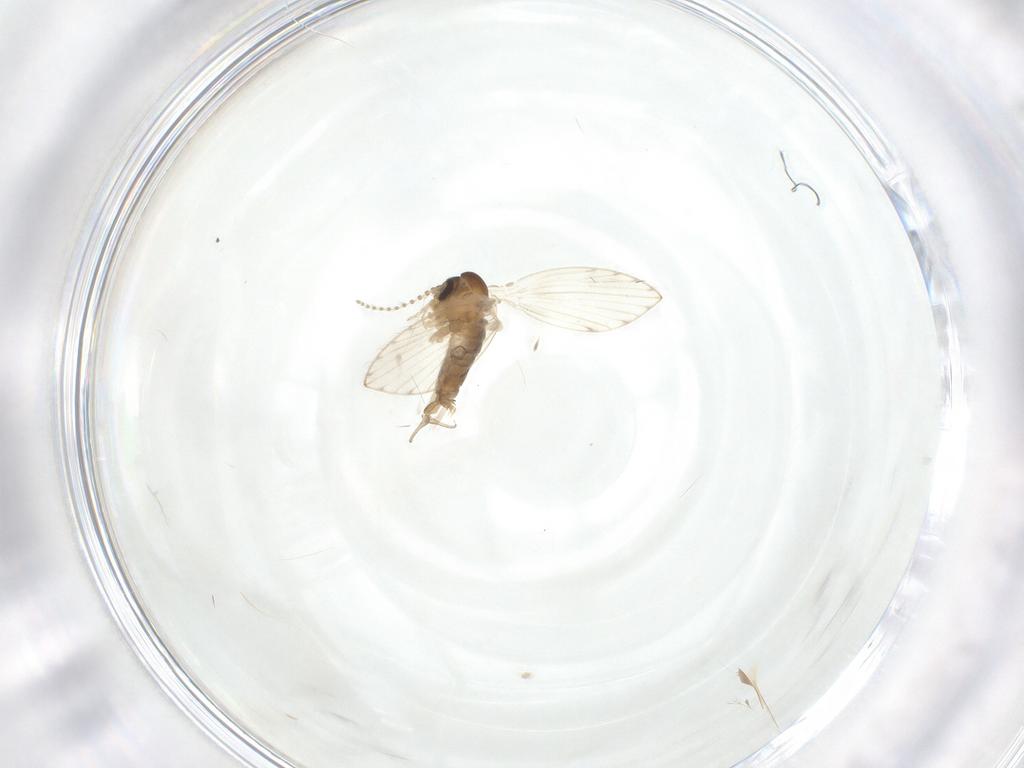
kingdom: Animalia
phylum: Arthropoda
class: Insecta
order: Diptera
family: Psychodidae
